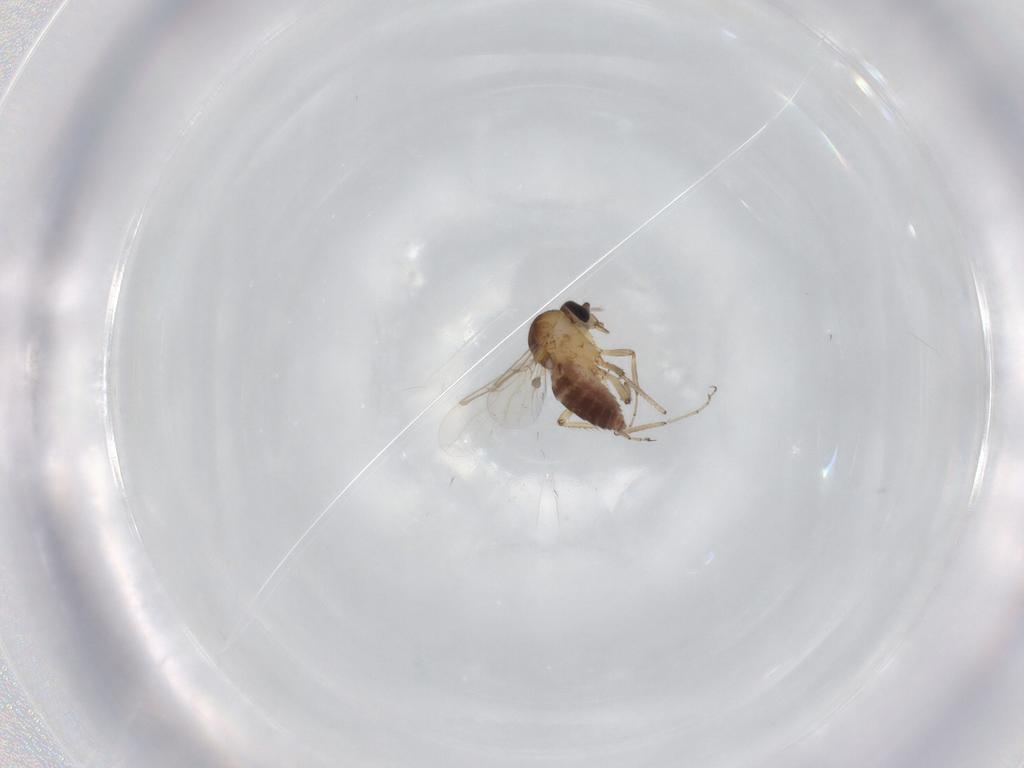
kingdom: Animalia
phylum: Arthropoda
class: Insecta
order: Diptera
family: Ceratopogonidae
